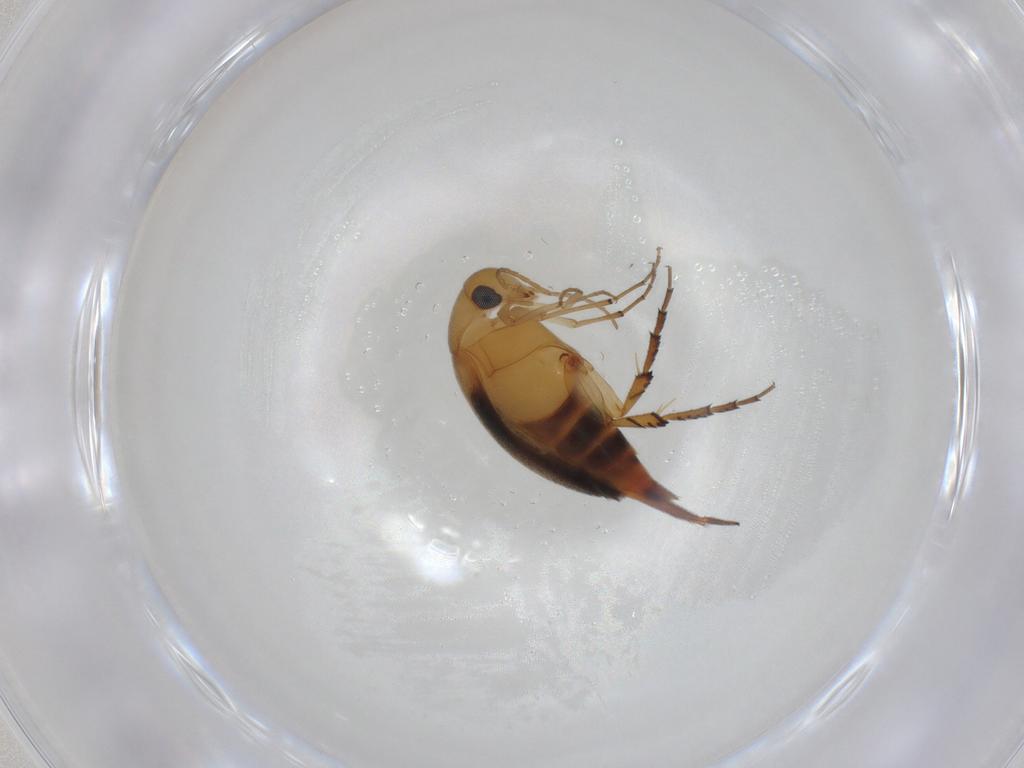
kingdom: Animalia
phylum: Arthropoda
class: Insecta
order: Coleoptera
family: Mordellidae
